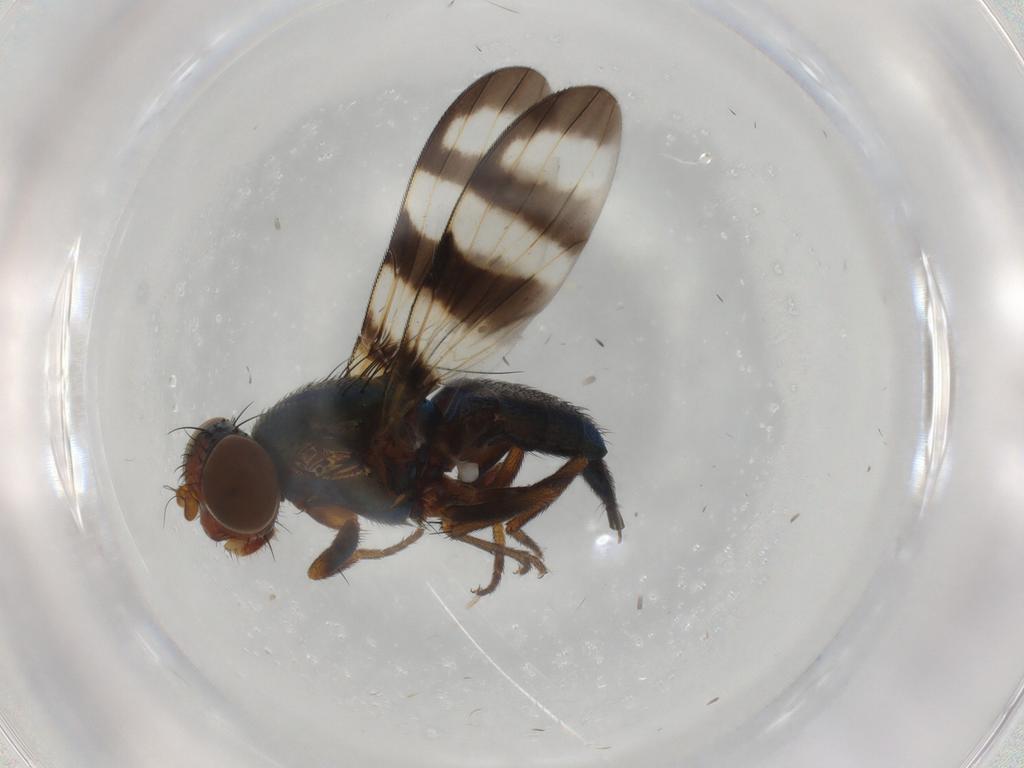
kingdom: Animalia
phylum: Arthropoda
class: Insecta
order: Diptera
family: Ulidiidae
